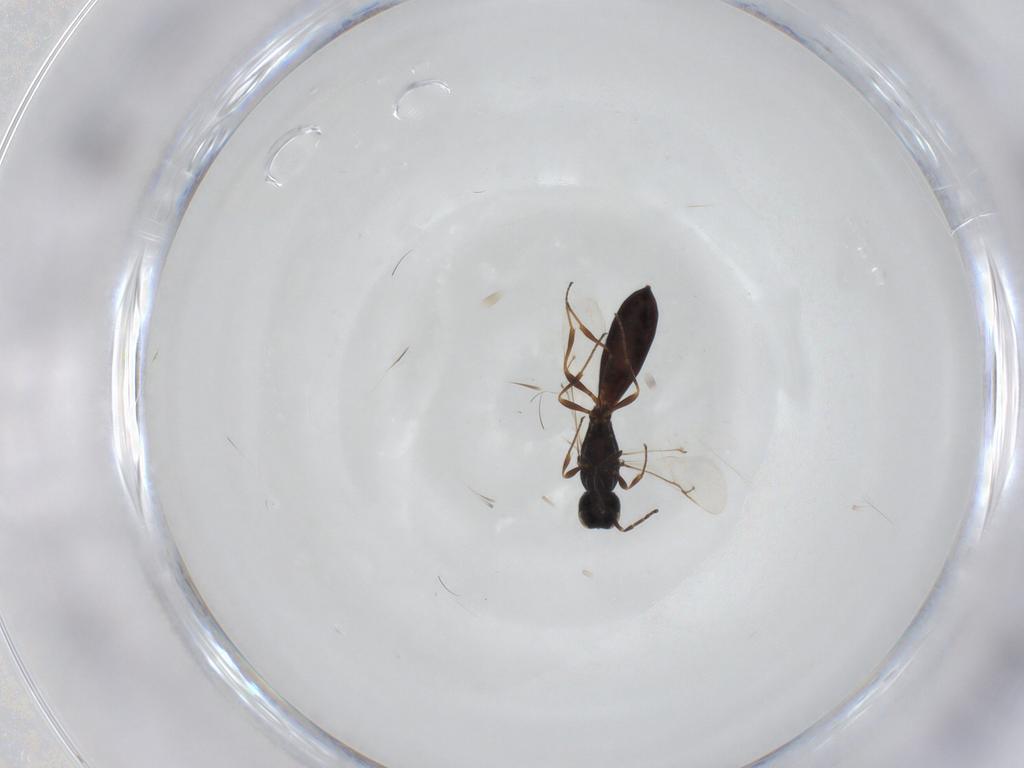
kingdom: Animalia
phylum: Arthropoda
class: Insecta
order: Hymenoptera
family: Scelionidae
